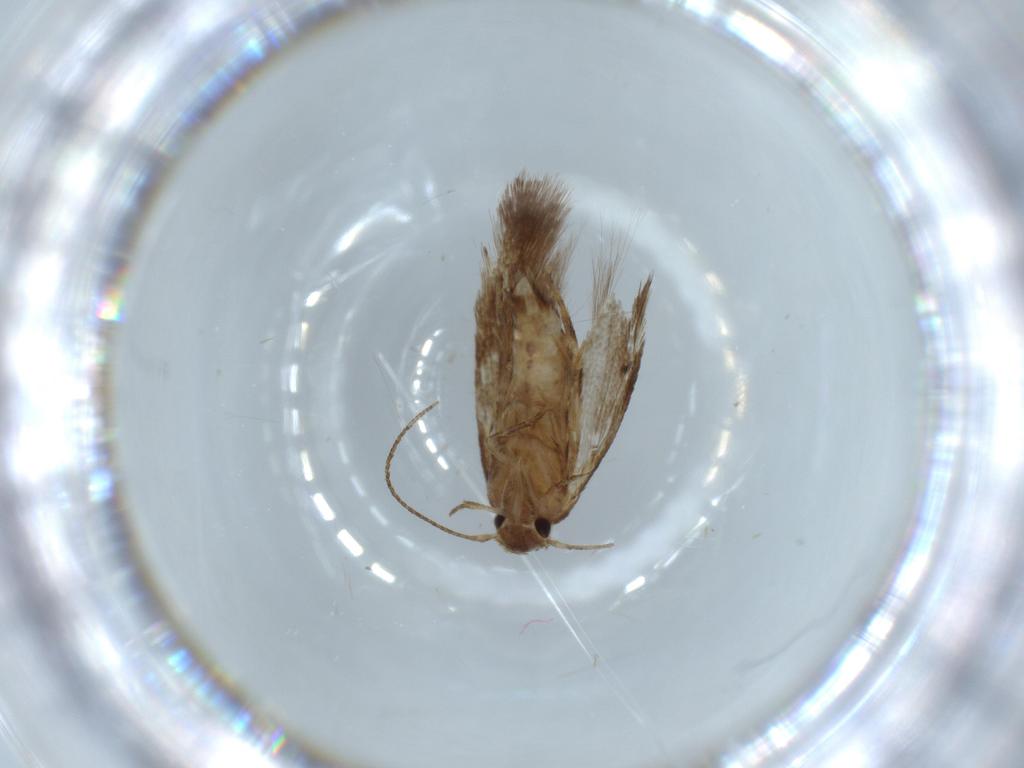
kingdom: Animalia
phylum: Arthropoda
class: Insecta
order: Lepidoptera
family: Gelechiidae
